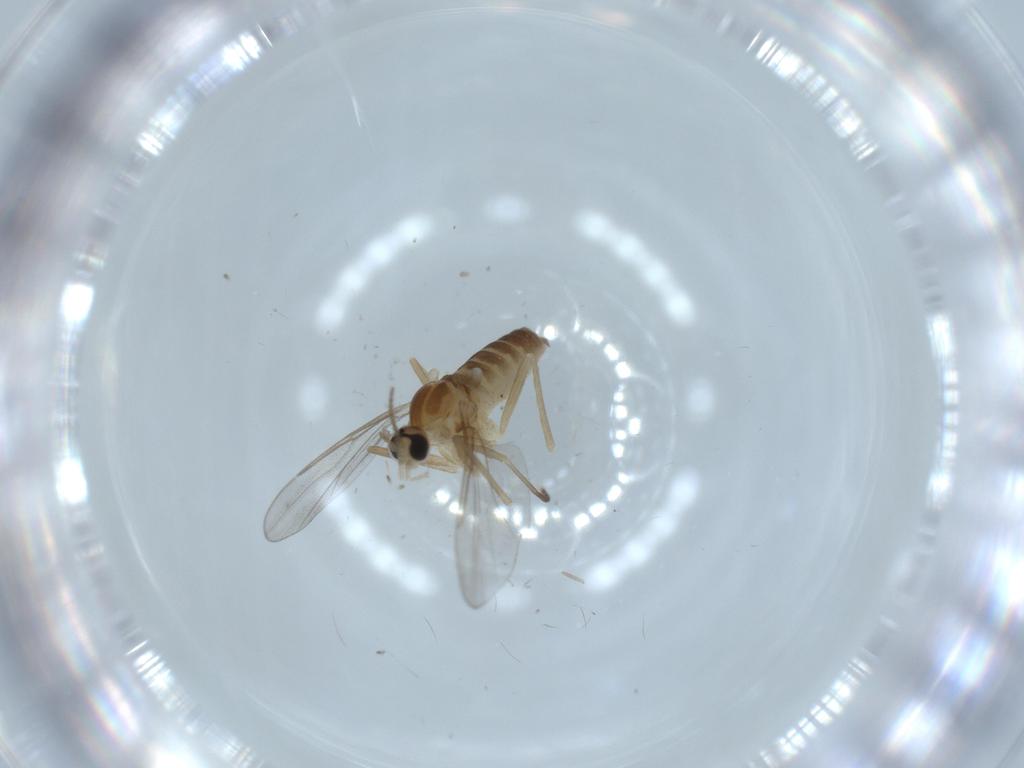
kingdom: Animalia
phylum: Arthropoda
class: Insecta
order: Diptera
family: Cecidomyiidae
